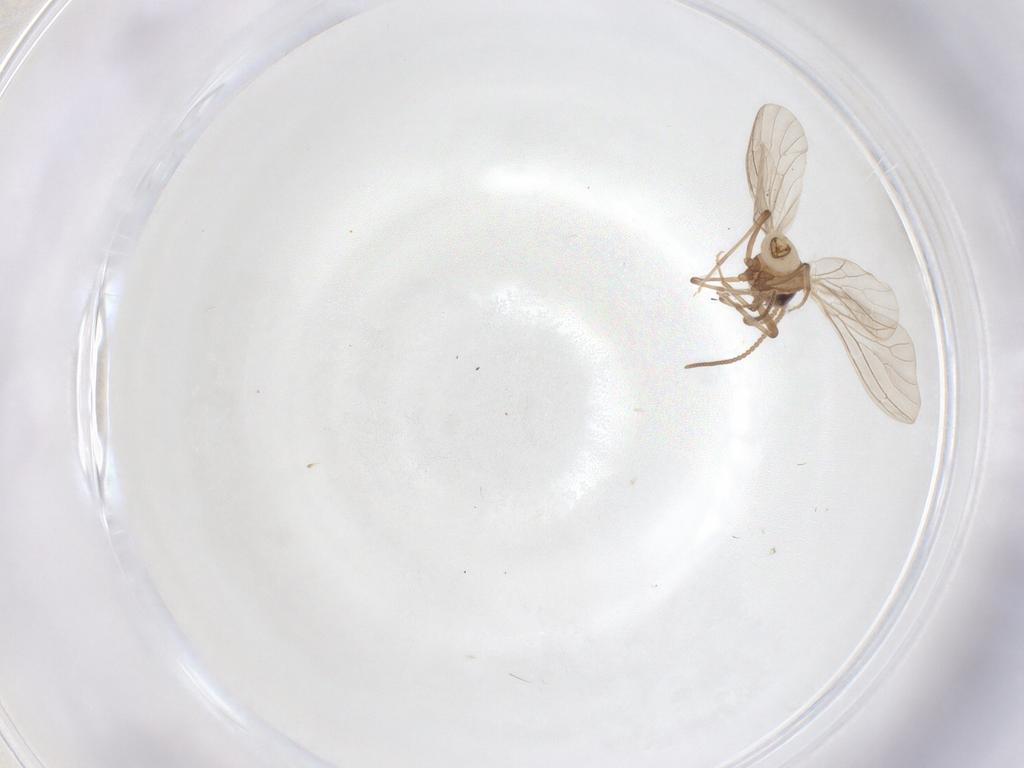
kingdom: Animalia
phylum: Arthropoda
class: Insecta
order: Neuroptera
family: Coniopterygidae
